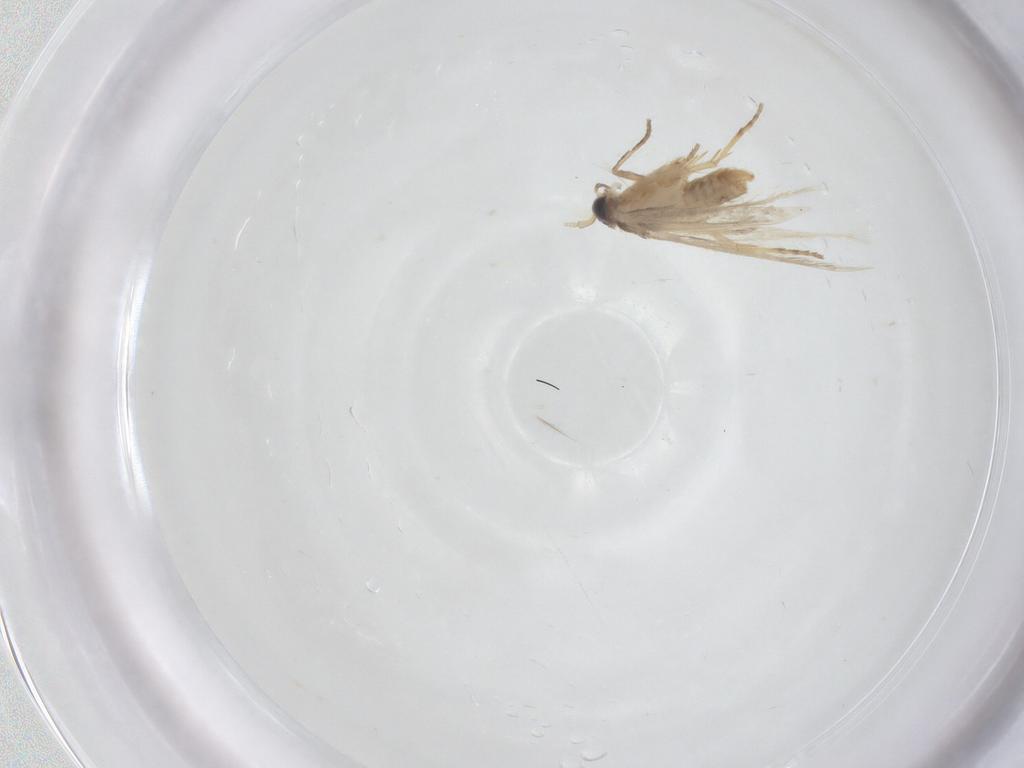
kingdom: Animalia
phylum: Arthropoda
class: Insecta
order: Lepidoptera
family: Nepticulidae
